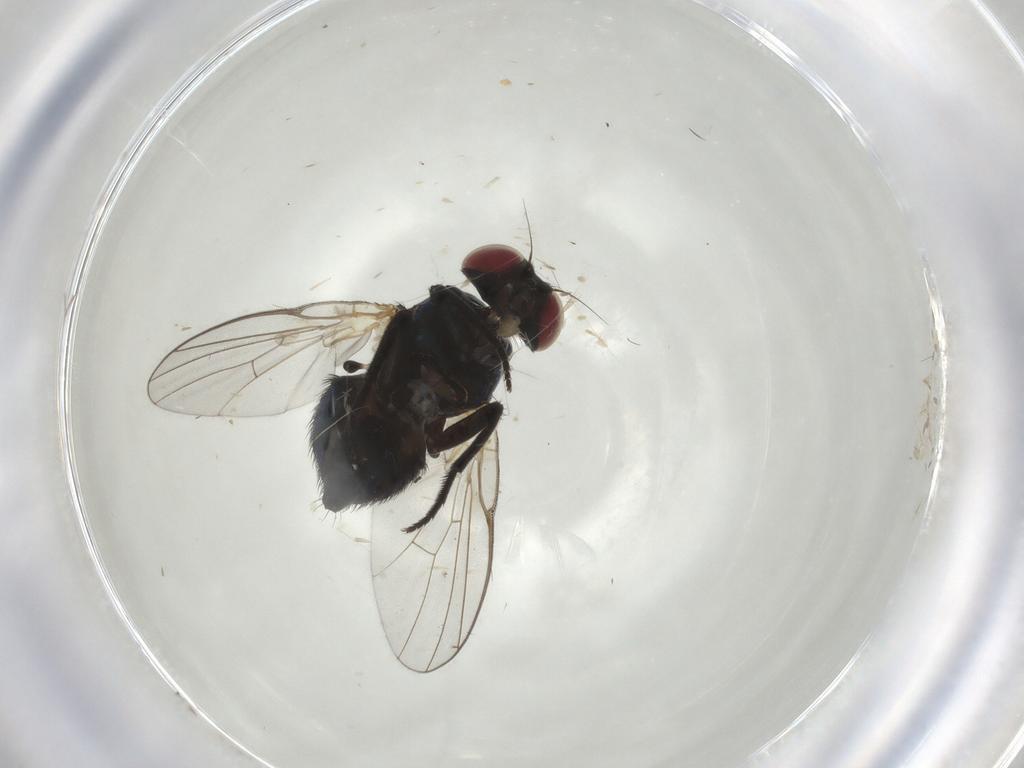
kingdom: Animalia
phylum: Arthropoda
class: Insecta
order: Diptera
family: Agromyzidae
